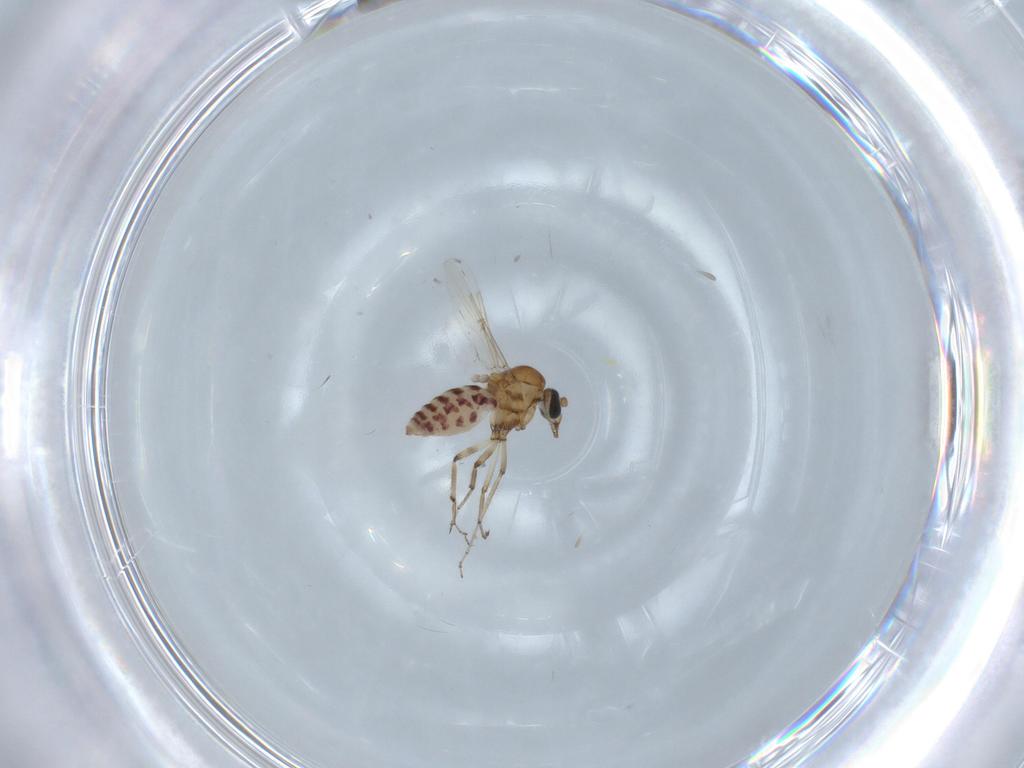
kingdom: Animalia
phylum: Arthropoda
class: Insecta
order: Diptera
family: Ceratopogonidae
